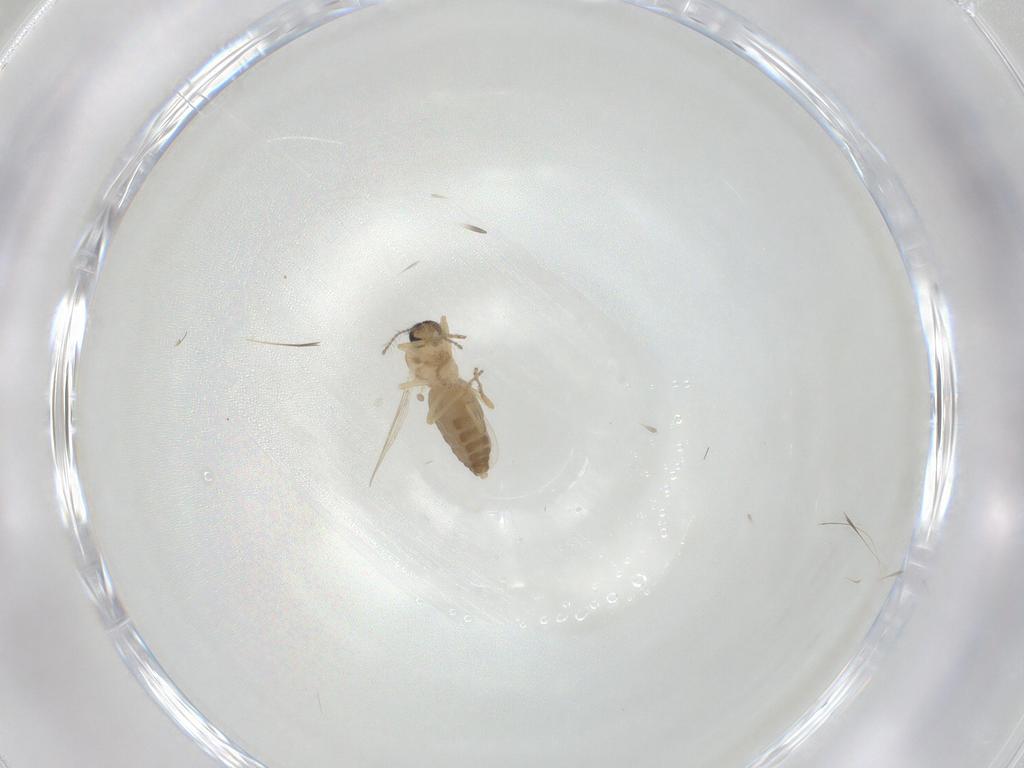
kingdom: Animalia
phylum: Arthropoda
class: Insecta
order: Diptera
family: Ceratopogonidae
